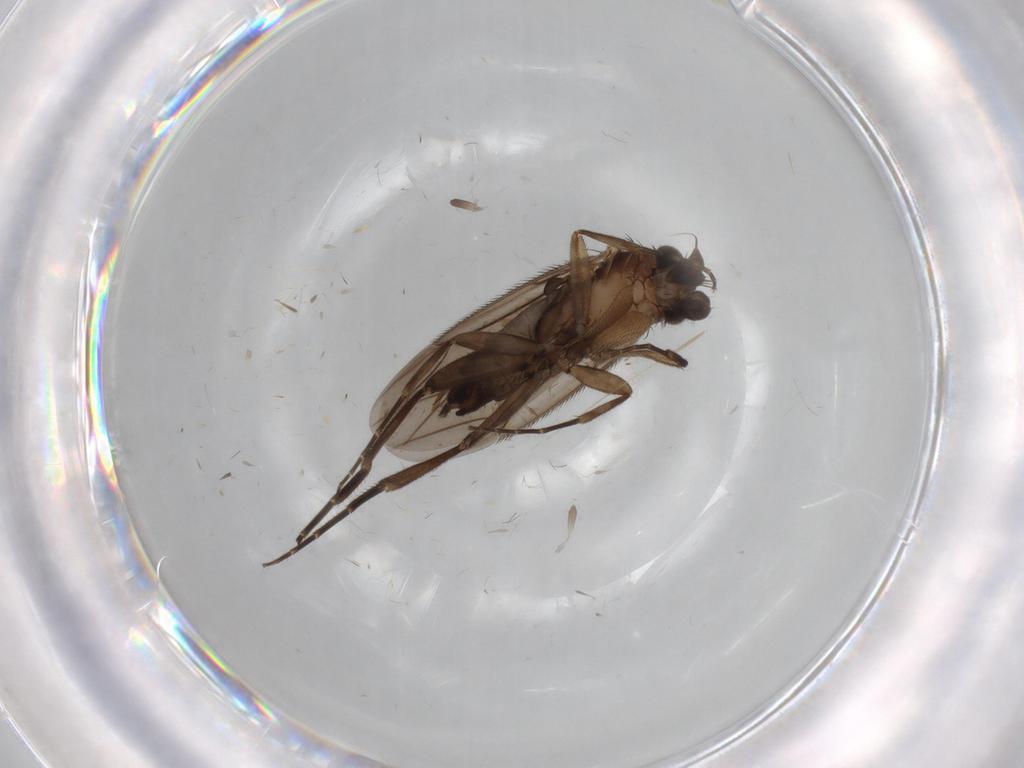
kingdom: Animalia
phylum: Arthropoda
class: Insecta
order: Diptera
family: Phoridae
